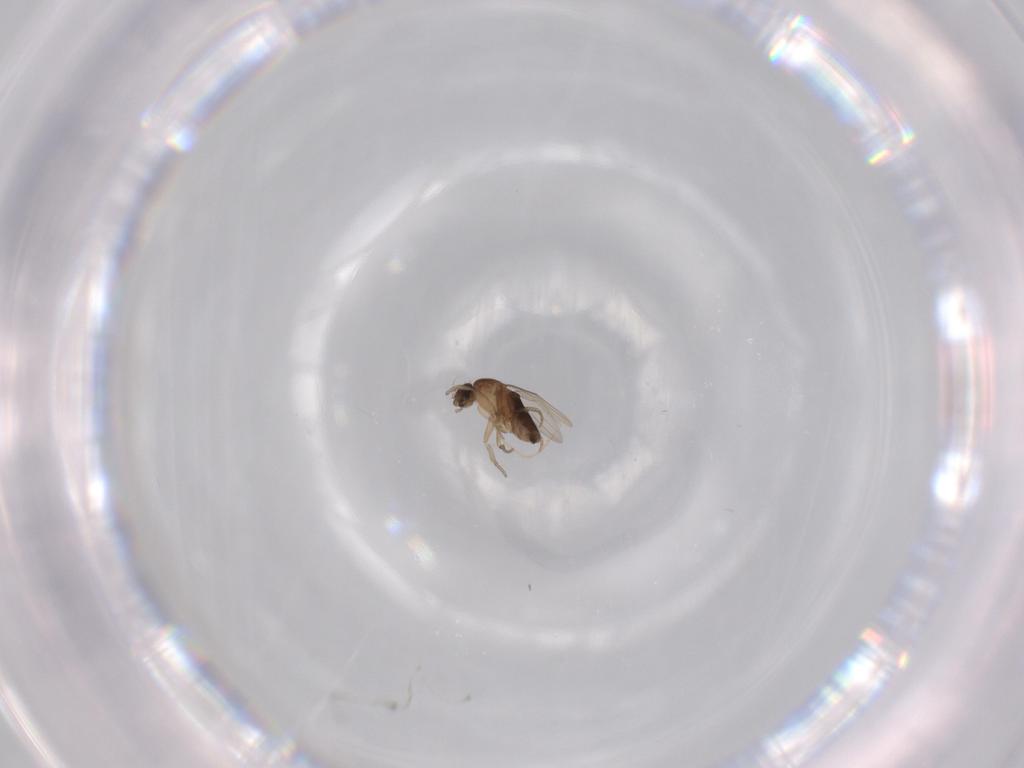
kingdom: Animalia
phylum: Arthropoda
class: Insecta
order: Diptera
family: Phoridae
